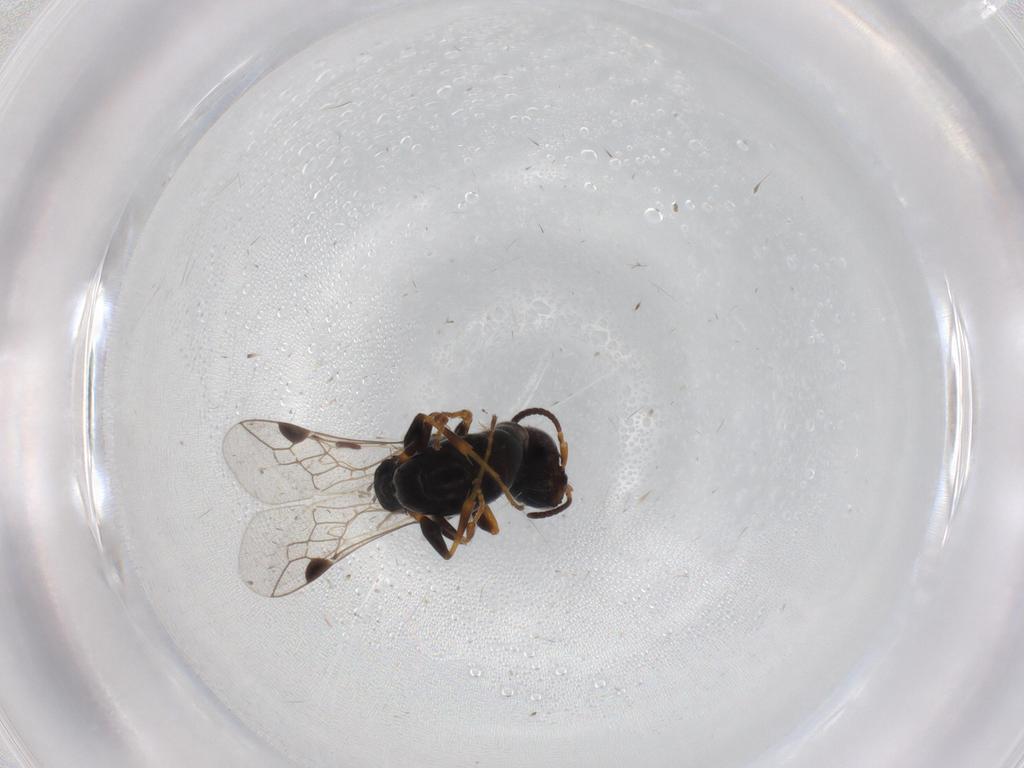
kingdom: Animalia
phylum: Arthropoda
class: Insecta
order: Hymenoptera
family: Pemphredonidae
